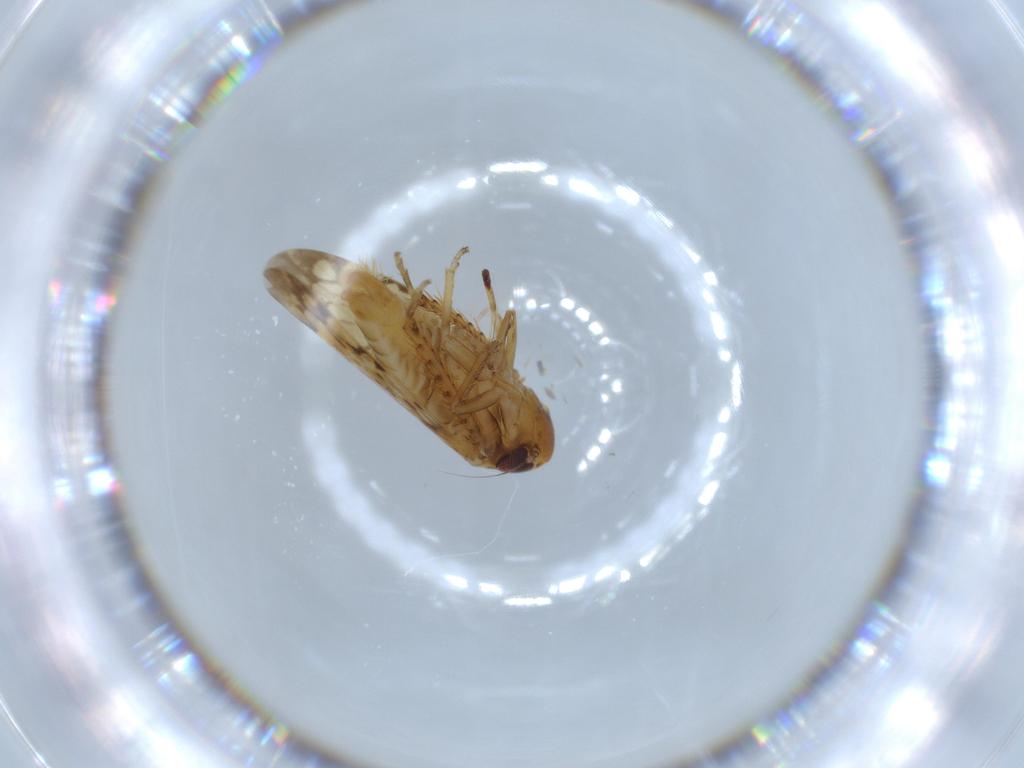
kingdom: Animalia
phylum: Arthropoda
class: Insecta
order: Hemiptera
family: Cicadellidae
